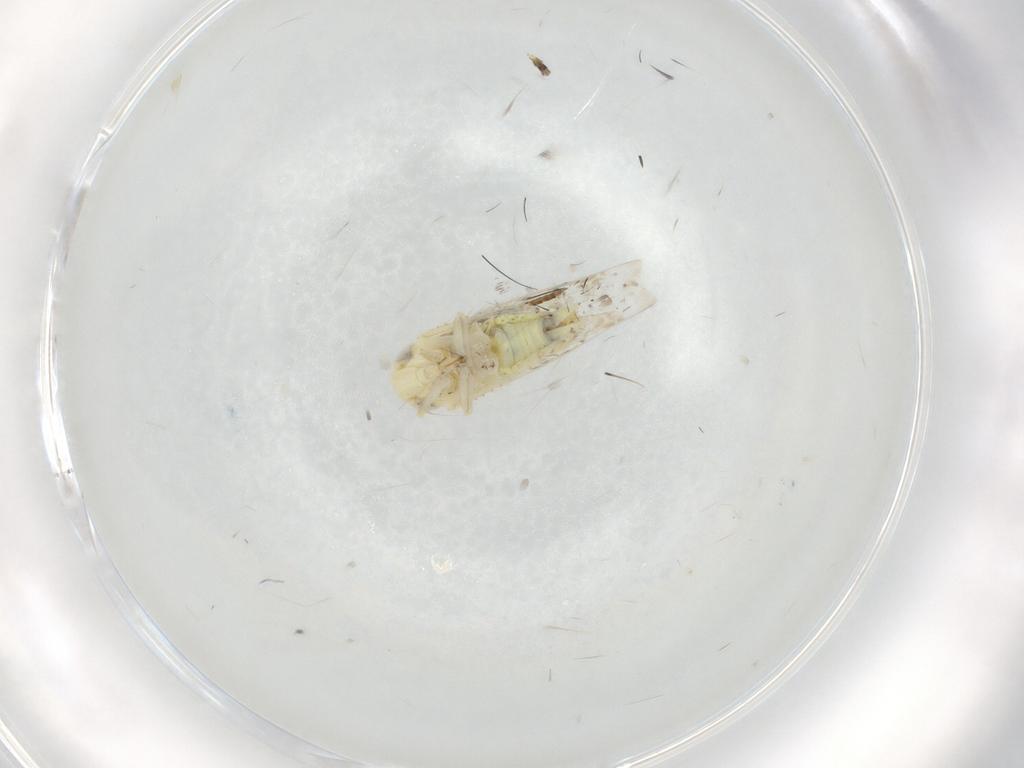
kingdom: Animalia
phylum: Arthropoda
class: Insecta
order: Hemiptera
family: Cicadellidae
